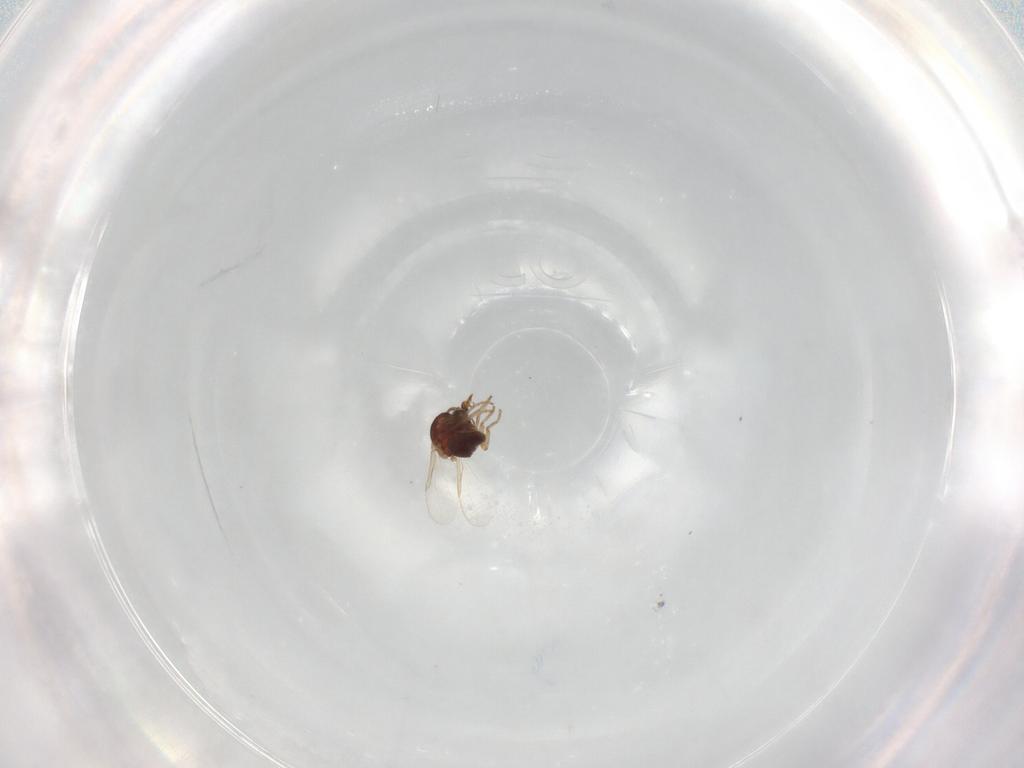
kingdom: Animalia
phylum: Arthropoda
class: Insecta
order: Diptera
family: Ceratopogonidae
